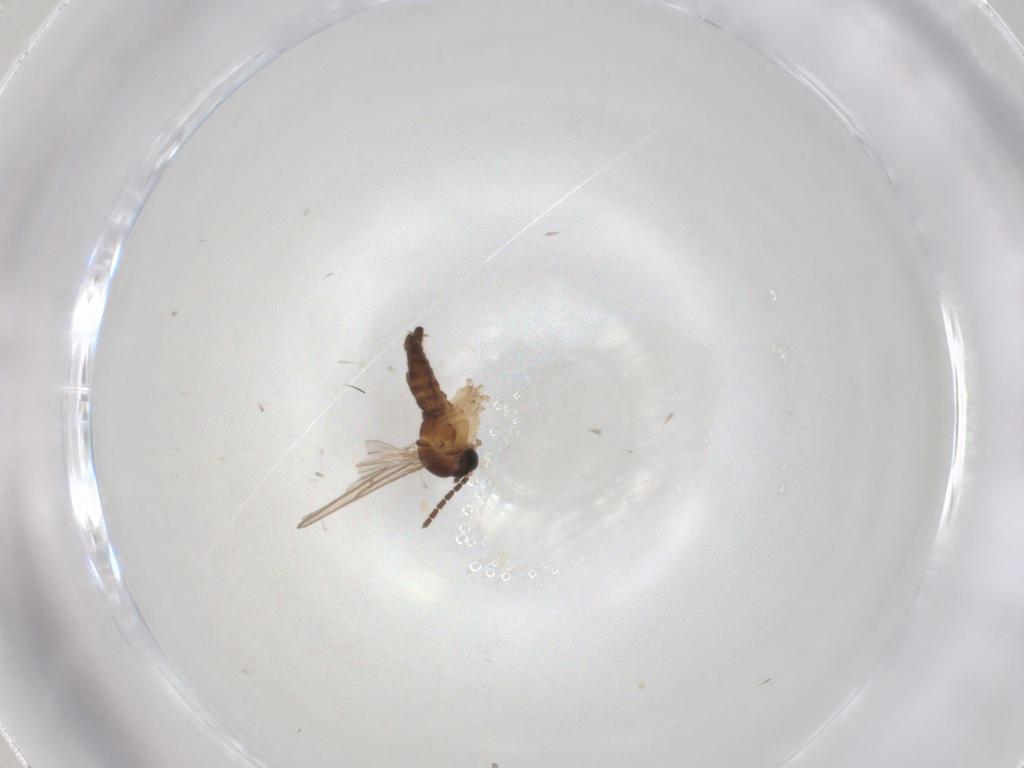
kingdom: Animalia
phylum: Arthropoda
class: Insecta
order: Diptera
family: Sciaridae
